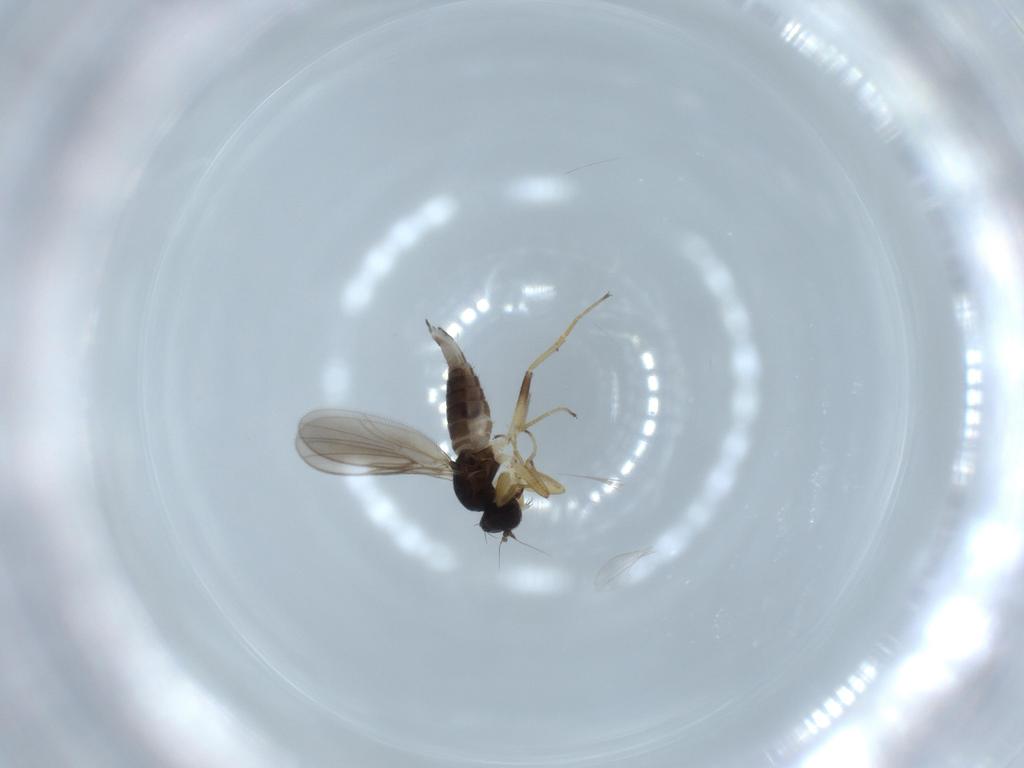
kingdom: Animalia
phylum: Arthropoda
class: Insecta
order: Diptera
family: Hybotidae
